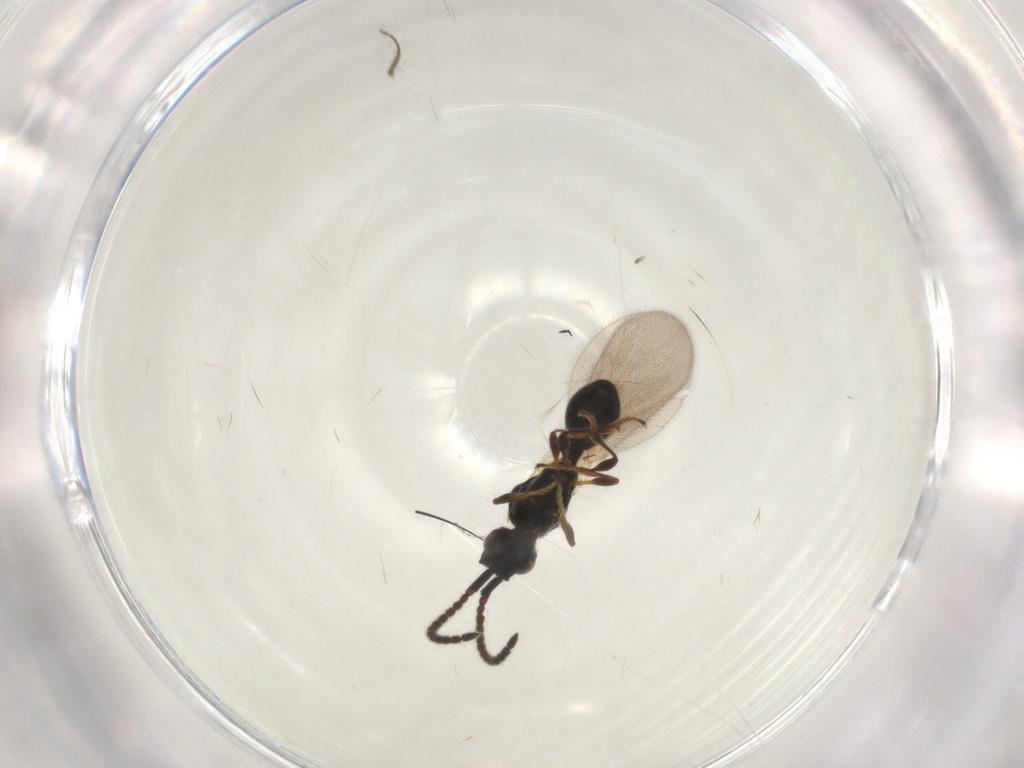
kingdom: Animalia
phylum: Arthropoda
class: Insecta
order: Hymenoptera
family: Diapriidae
